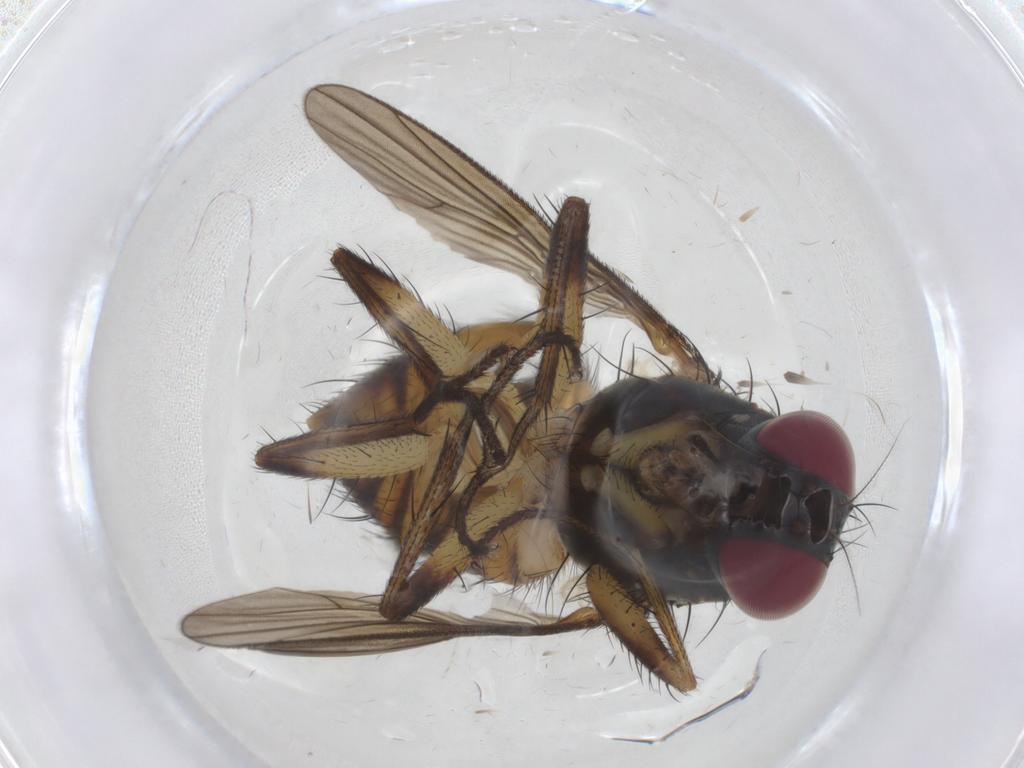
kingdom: Animalia
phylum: Arthropoda
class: Insecta
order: Diptera
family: Muscidae
